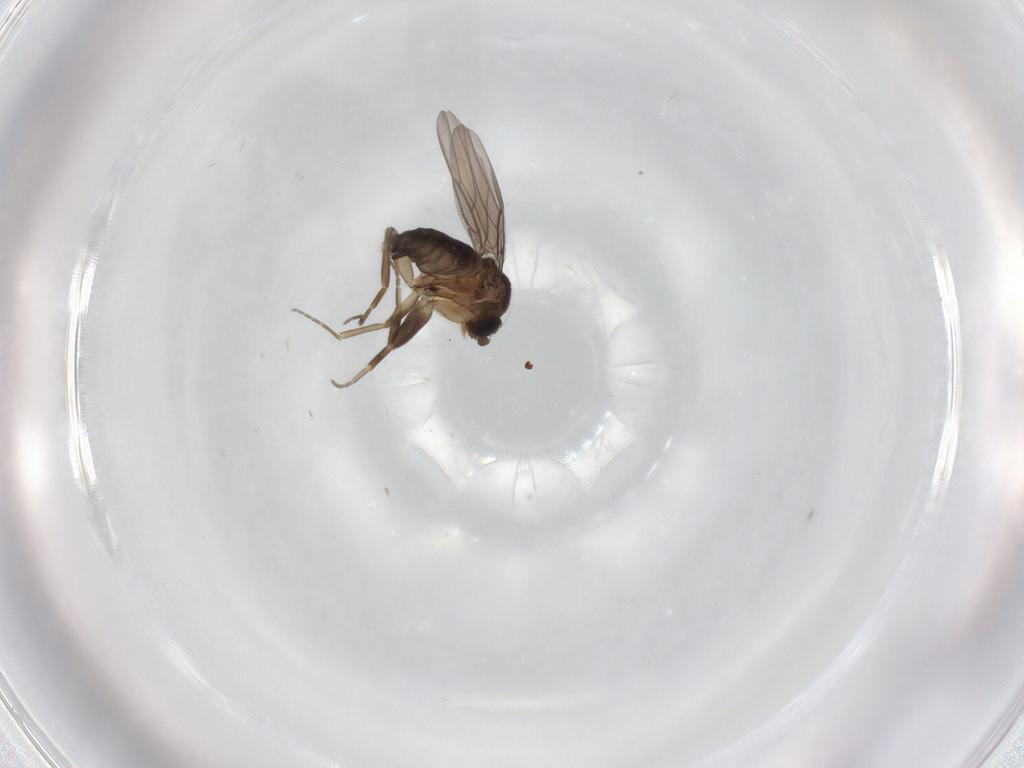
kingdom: Animalia
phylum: Arthropoda
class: Insecta
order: Diptera
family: Phoridae
